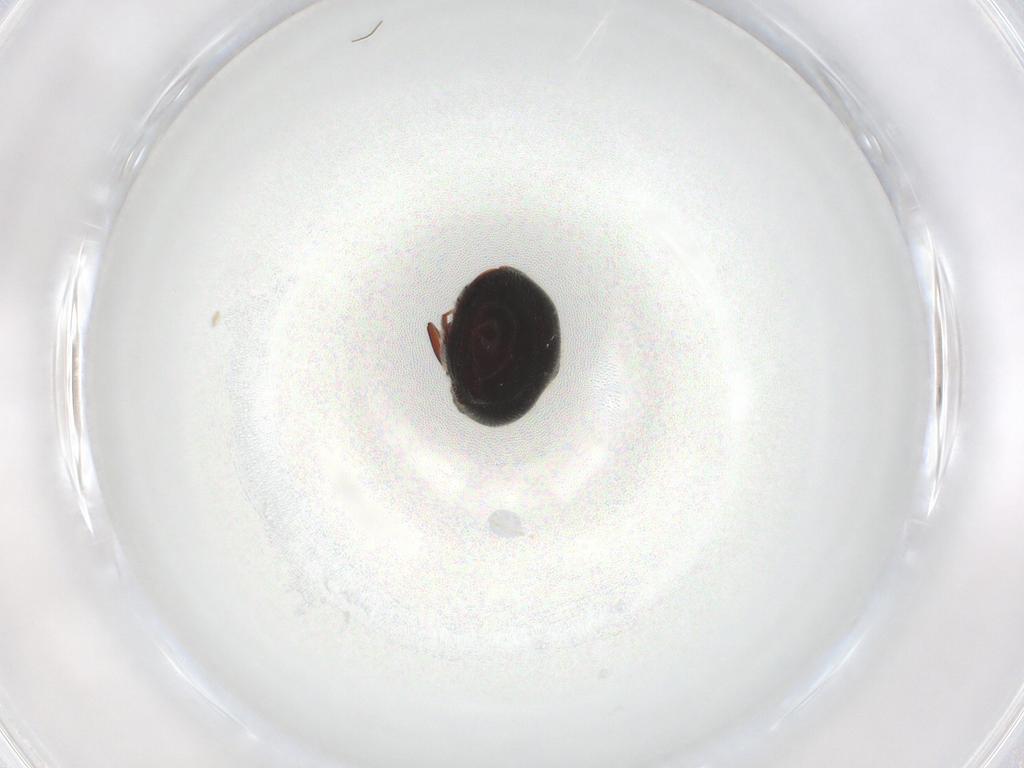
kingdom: Animalia
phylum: Arthropoda
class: Insecta
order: Coleoptera
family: Ptinidae
